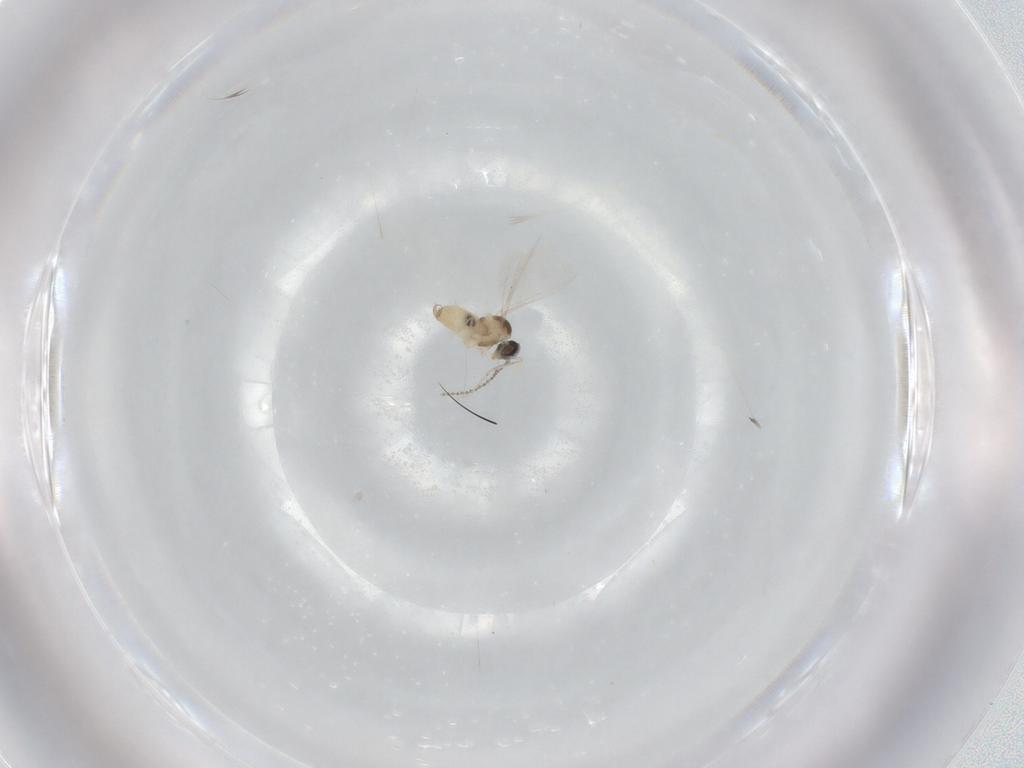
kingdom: Animalia
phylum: Arthropoda
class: Insecta
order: Diptera
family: Cecidomyiidae
